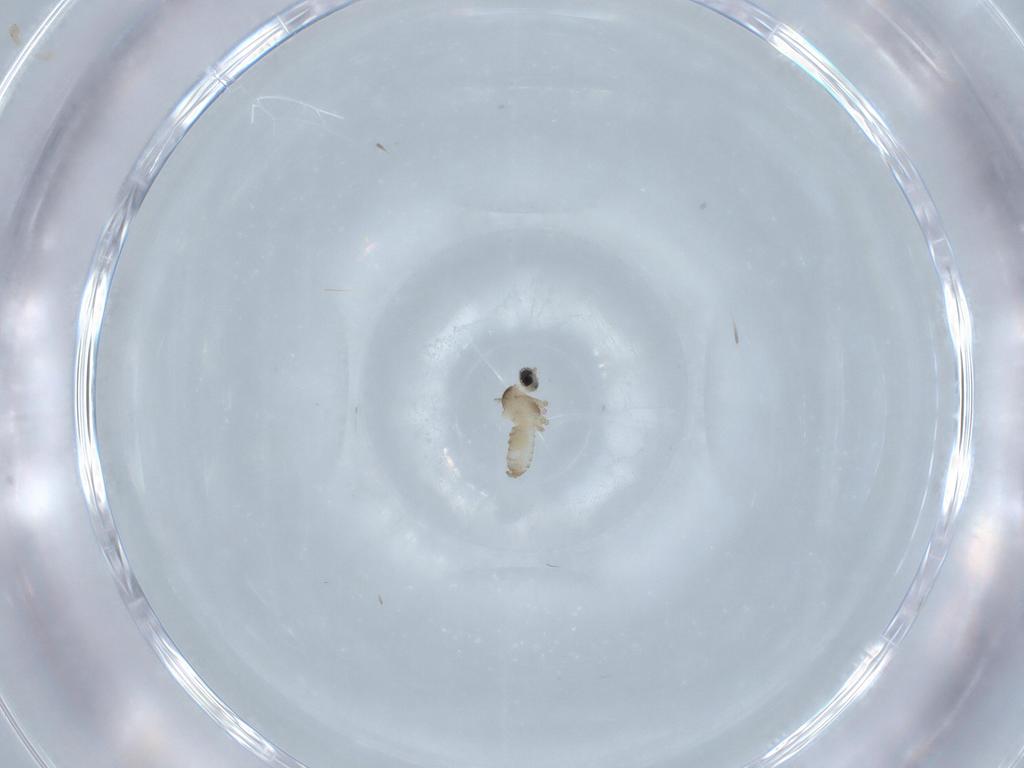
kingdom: Animalia
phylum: Arthropoda
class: Insecta
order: Diptera
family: Cecidomyiidae
